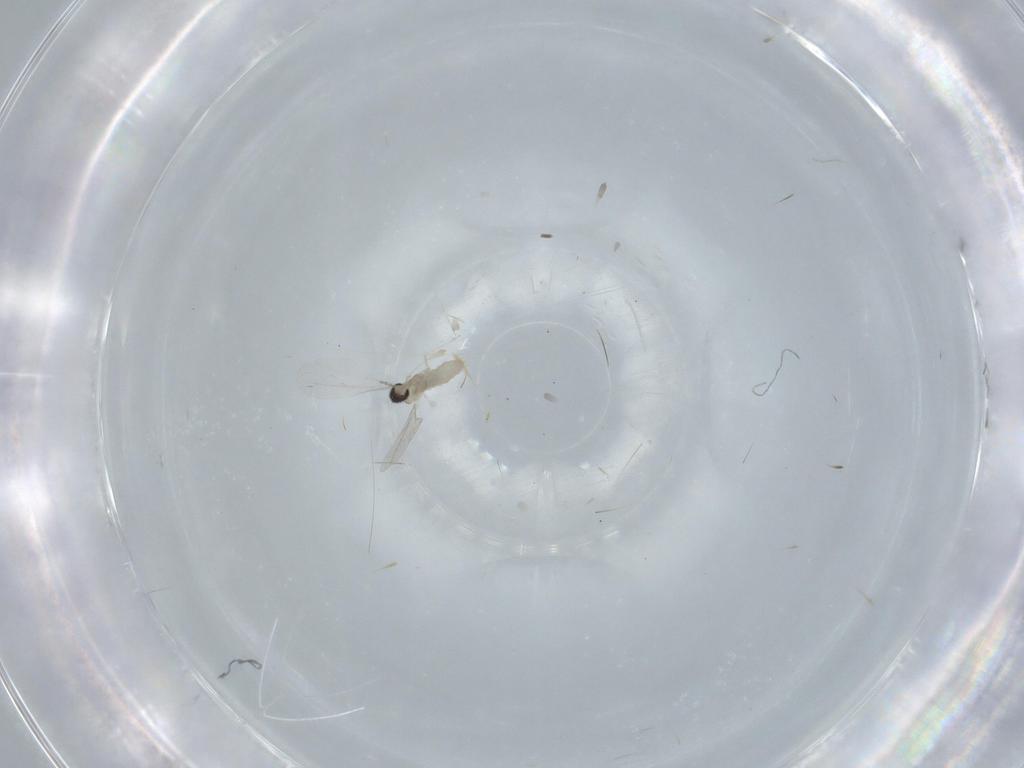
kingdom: Animalia
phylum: Arthropoda
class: Insecta
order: Diptera
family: Cecidomyiidae
